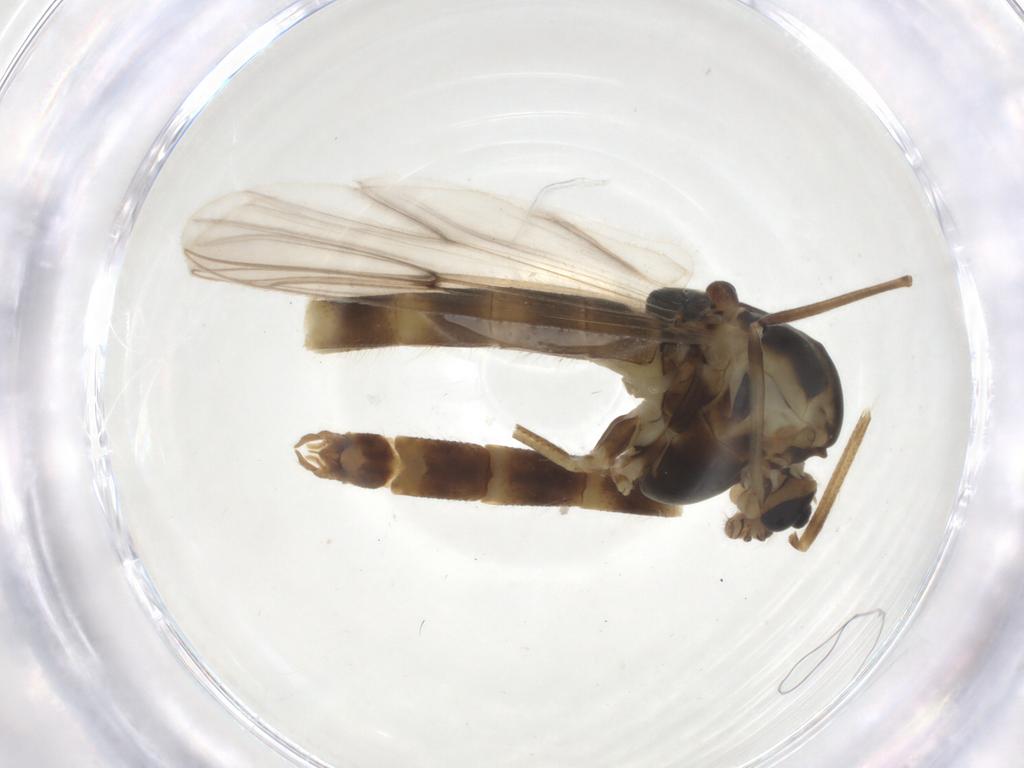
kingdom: Animalia
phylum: Arthropoda
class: Insecta
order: Diptera
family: Chironomidae
